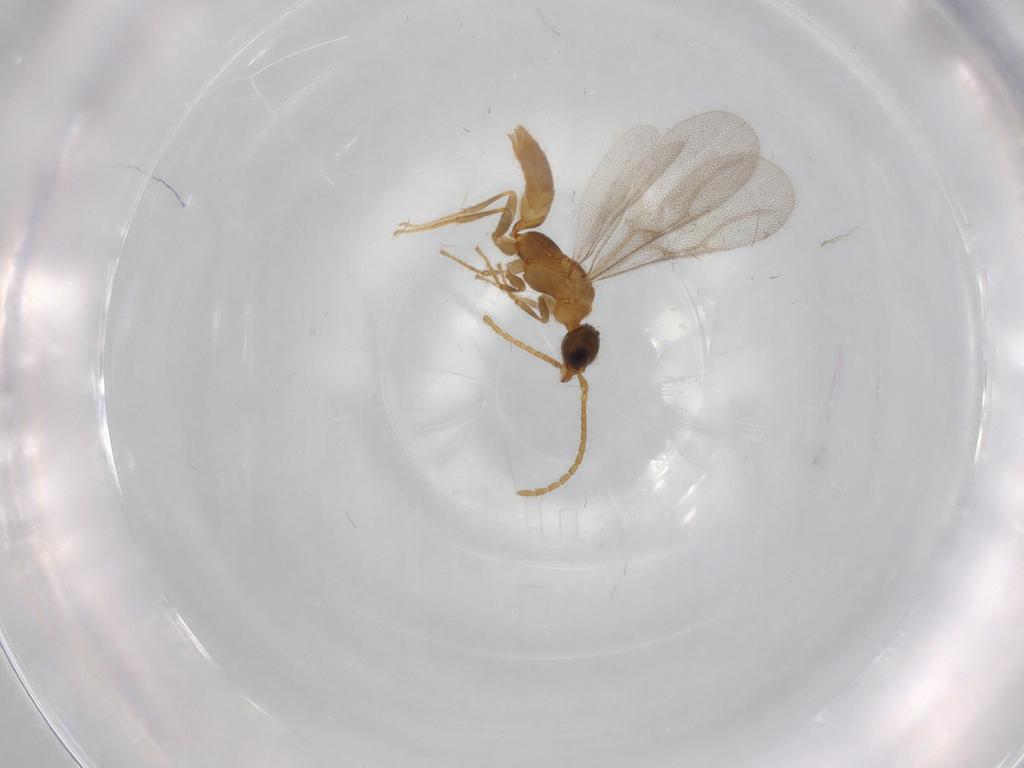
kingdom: Animalia
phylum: Arthropoda
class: Insecta
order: Hymenoptera
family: Bethylidae
